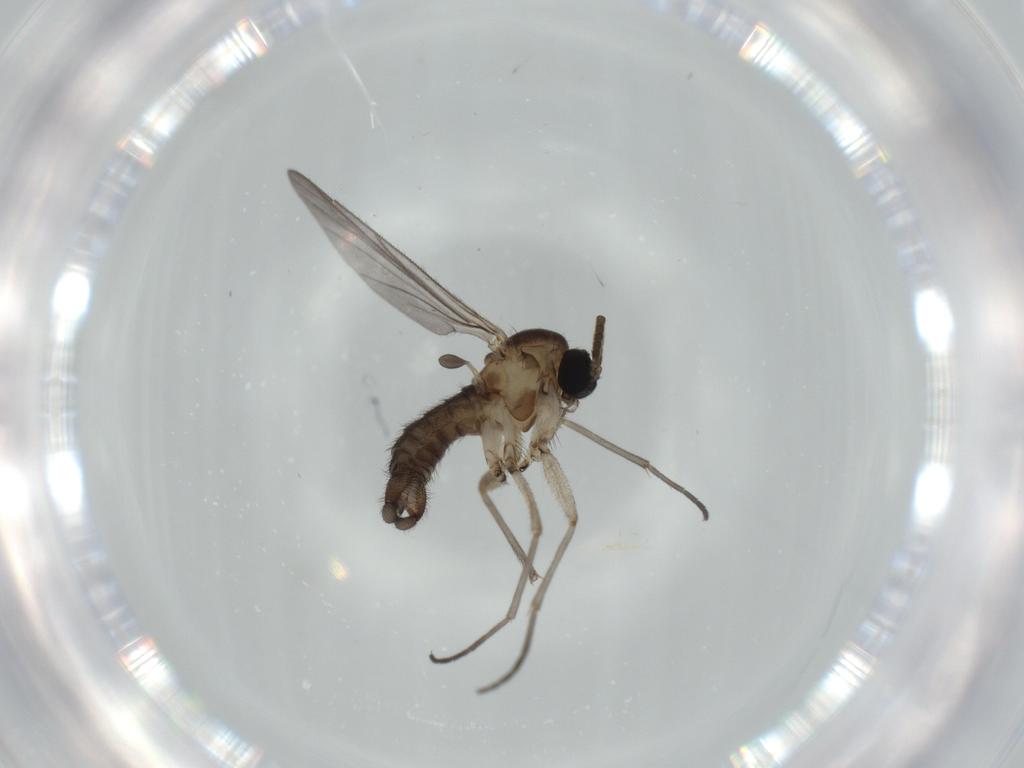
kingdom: Animalia
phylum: Arthropoda
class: Insecta
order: Diptera
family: Sciaridae
